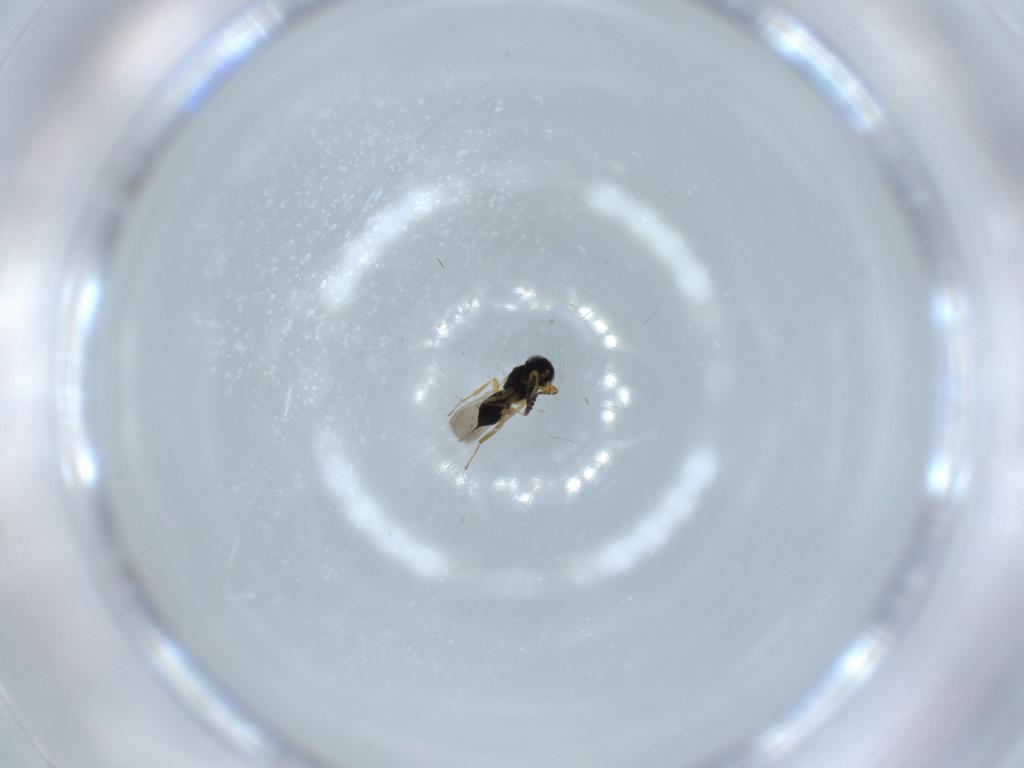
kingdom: Animalia
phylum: Arthropoda
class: Insecta
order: Hymenoptera
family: Scelionidae
